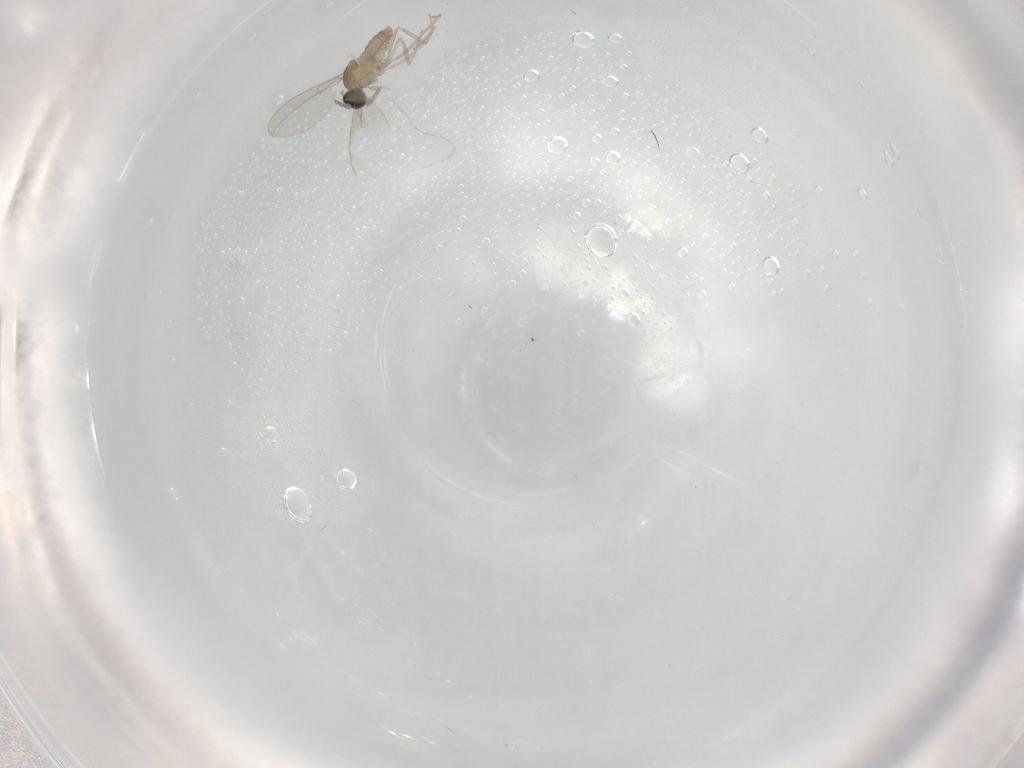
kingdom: Animalia
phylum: Arthropoda
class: Insecta
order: Diptera
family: Cecidomyiidae
